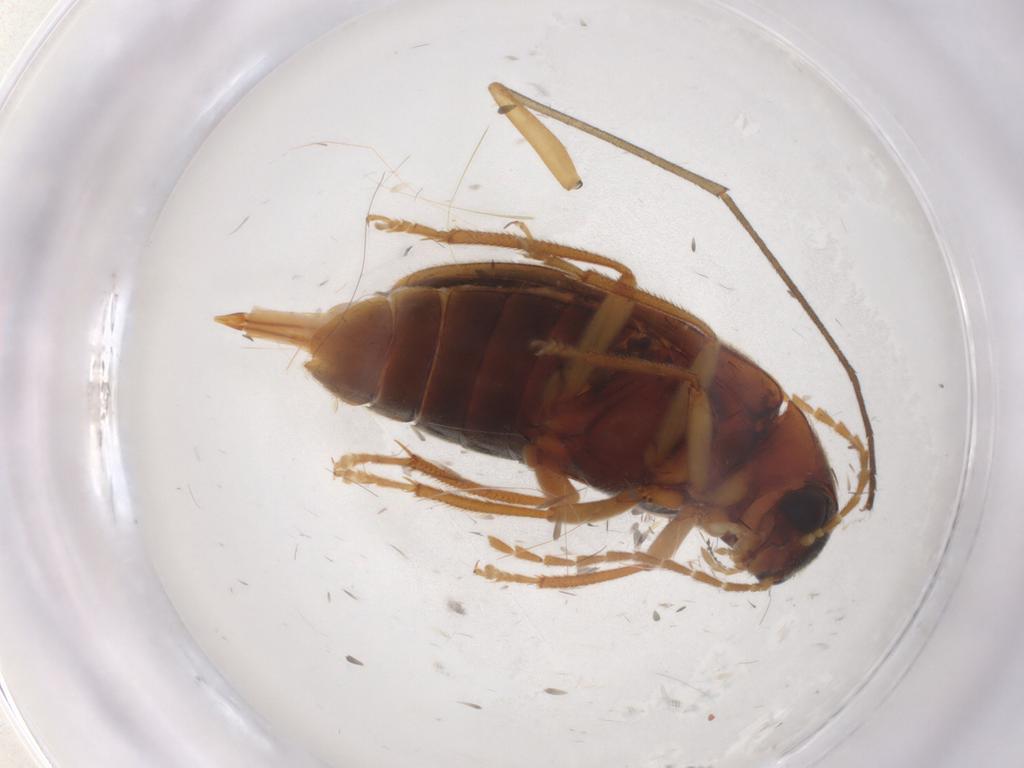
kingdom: Animalia
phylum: Arthropoda
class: Insecta
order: Coleoptera
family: Ptilodactylidae
